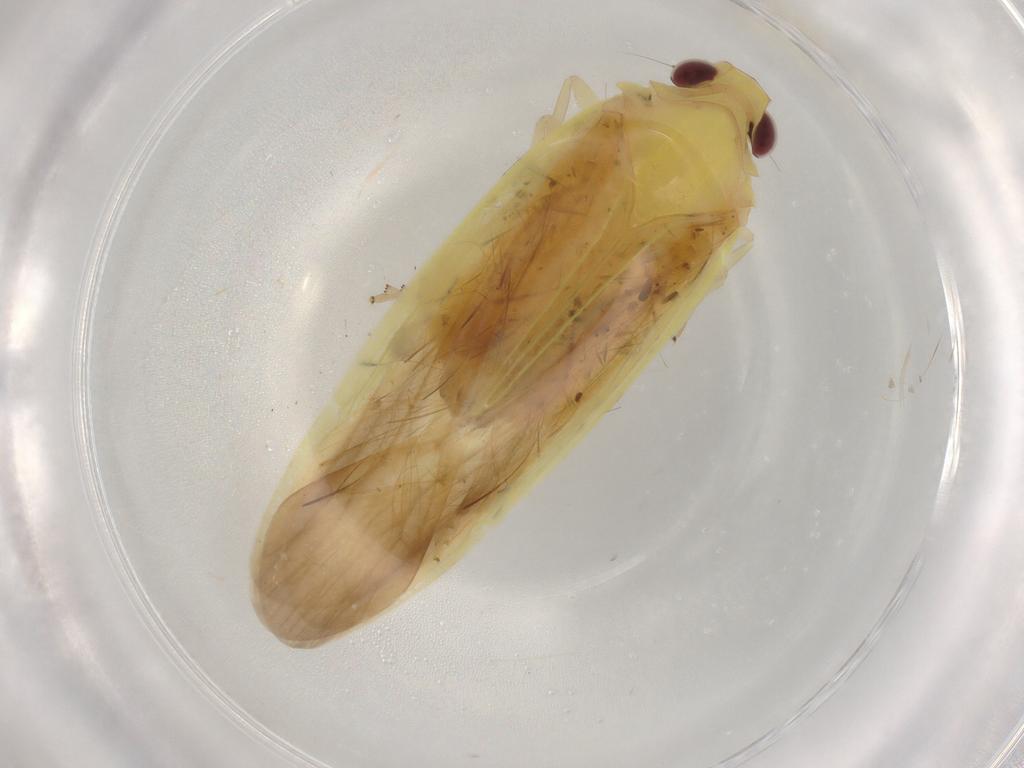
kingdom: Animalia
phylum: Arthropoda
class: Insecta
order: Hemiptera
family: Achilidae
